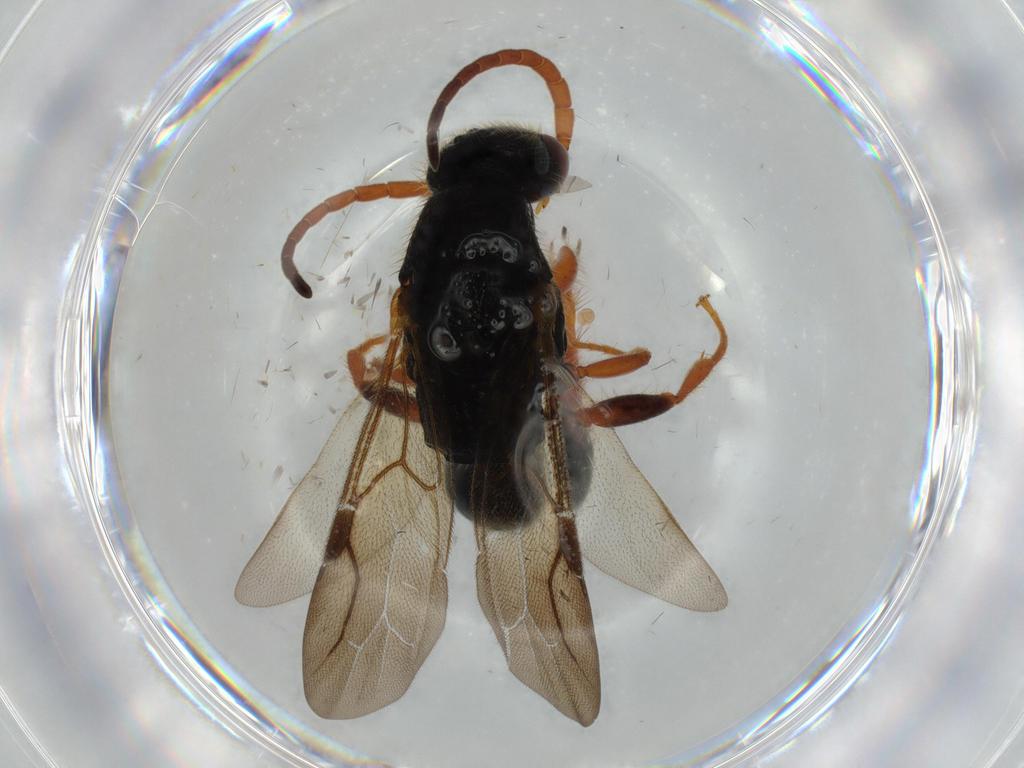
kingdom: Animalia
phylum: Arthropoda
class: Insecta
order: Hymenoptera
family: Bethylidae
